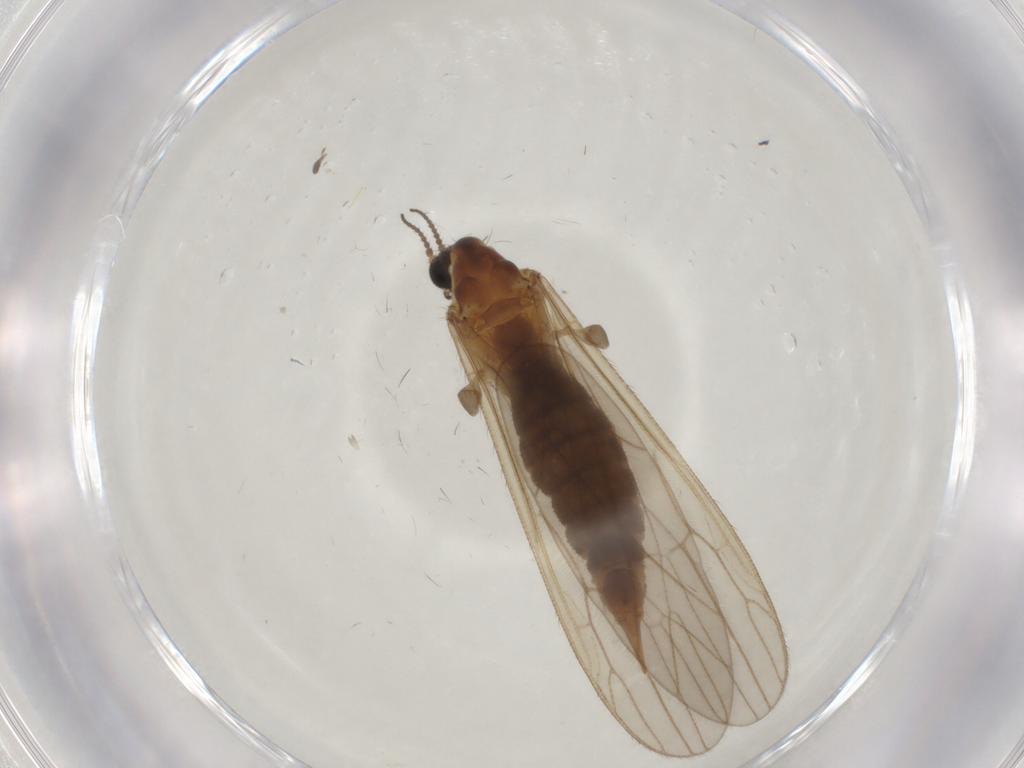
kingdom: Animalia
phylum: Arthropoda
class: Insecta
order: Diptera
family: Limoniidae
